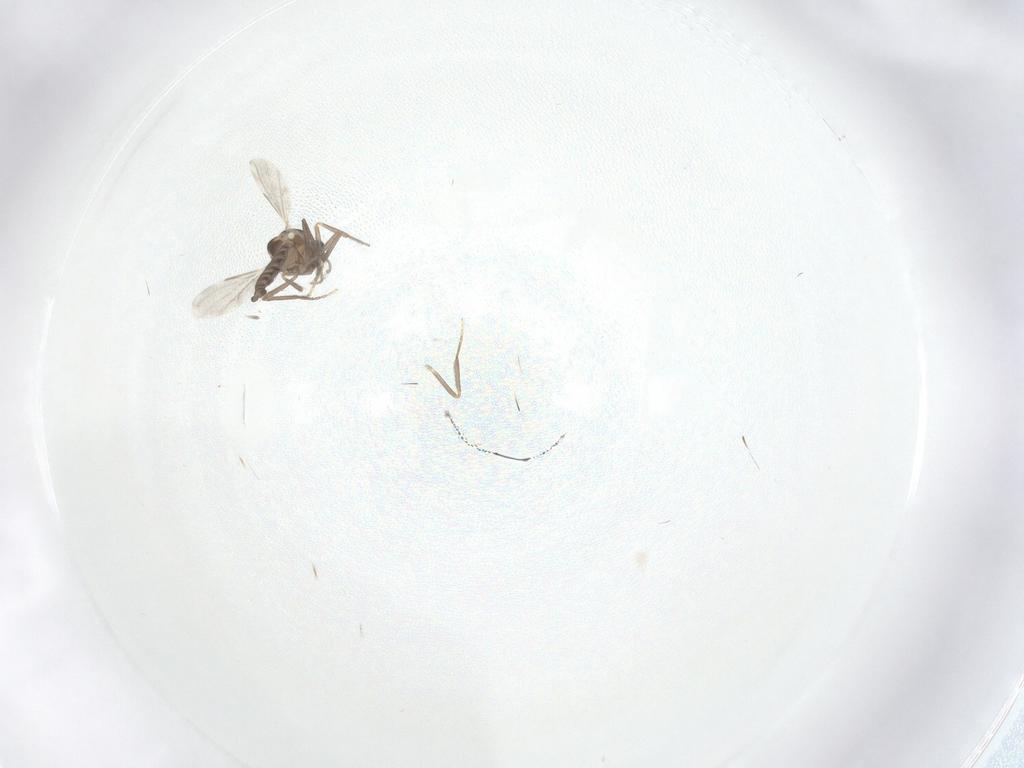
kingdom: Animalia
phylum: Arthropoda
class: Insecta
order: Diptera
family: Ceratopogonidae
